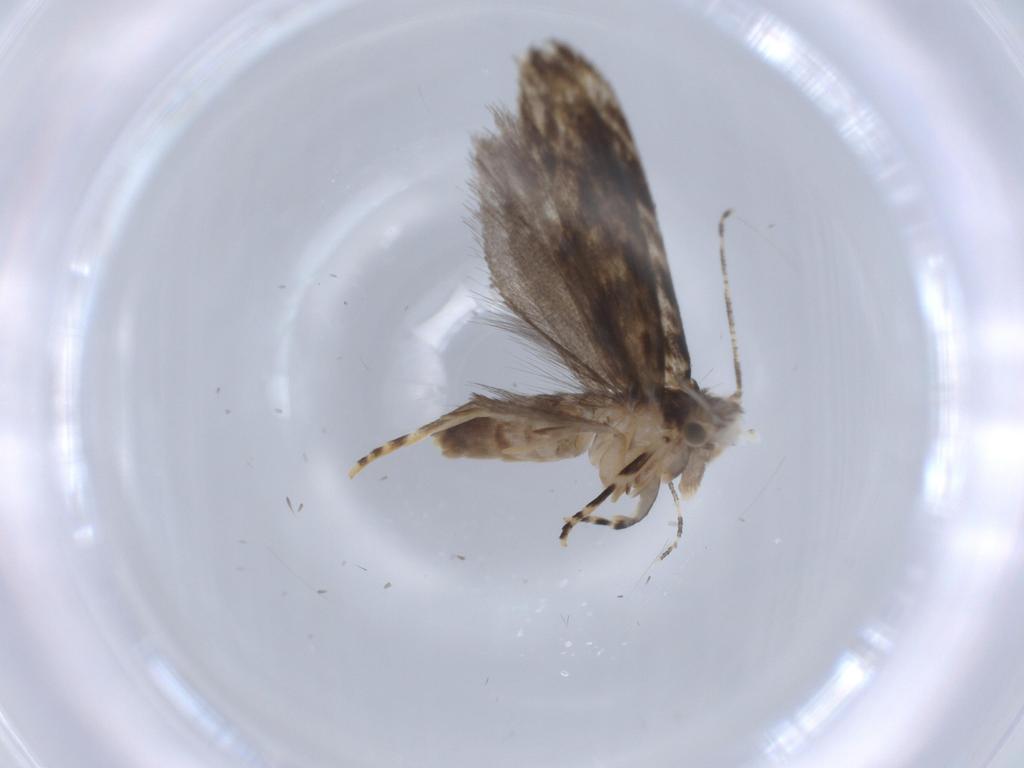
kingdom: Animalia
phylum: Arthropoda
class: Insecta
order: Lepidoptera
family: Tineidae
